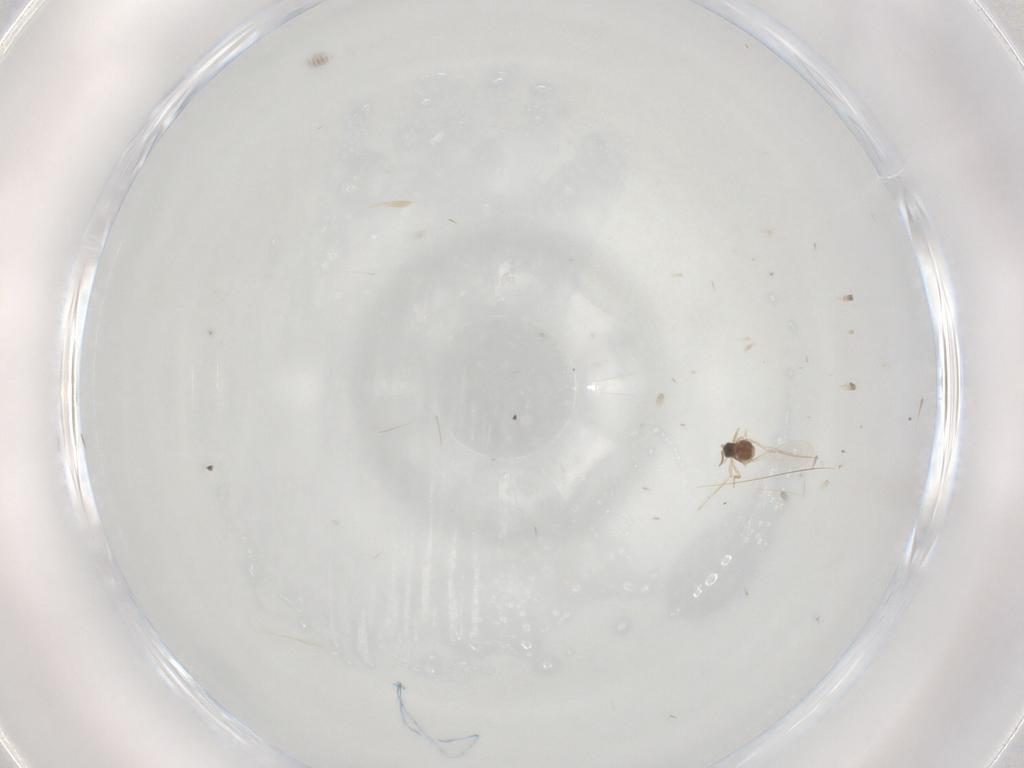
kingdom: Animalia
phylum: Arthropoda
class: Insecta
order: Diptera
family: Cecidomyiidae
